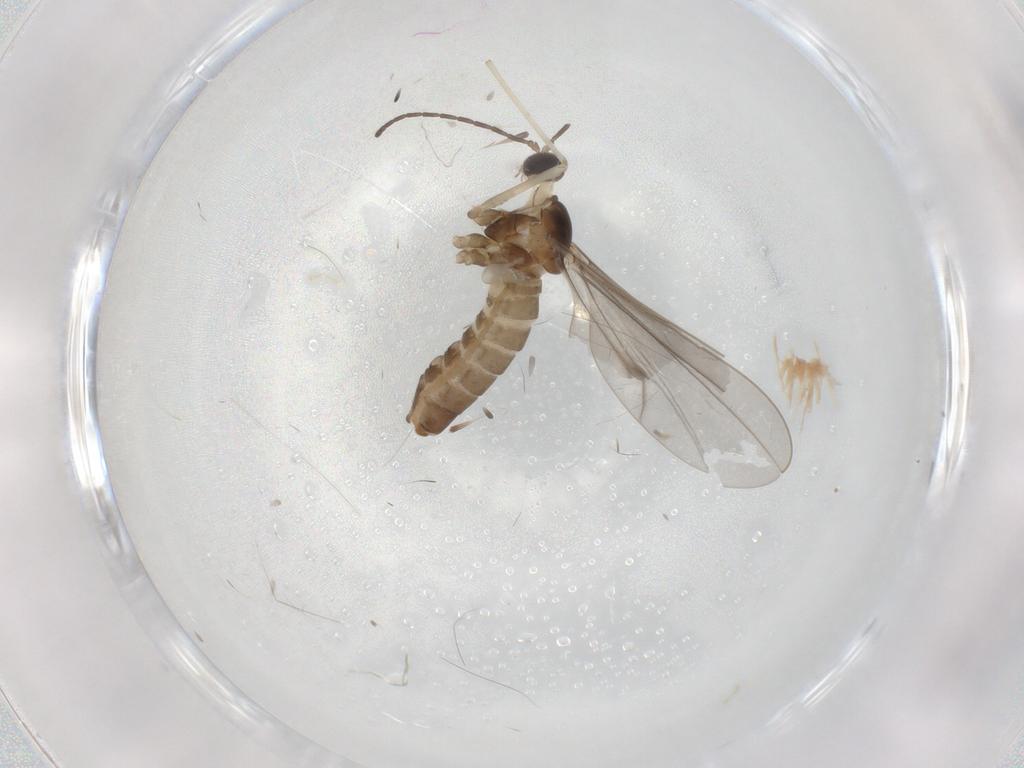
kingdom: Animalia
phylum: Arthropoda
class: Insecta
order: Diptera
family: Cecidomyiidae
